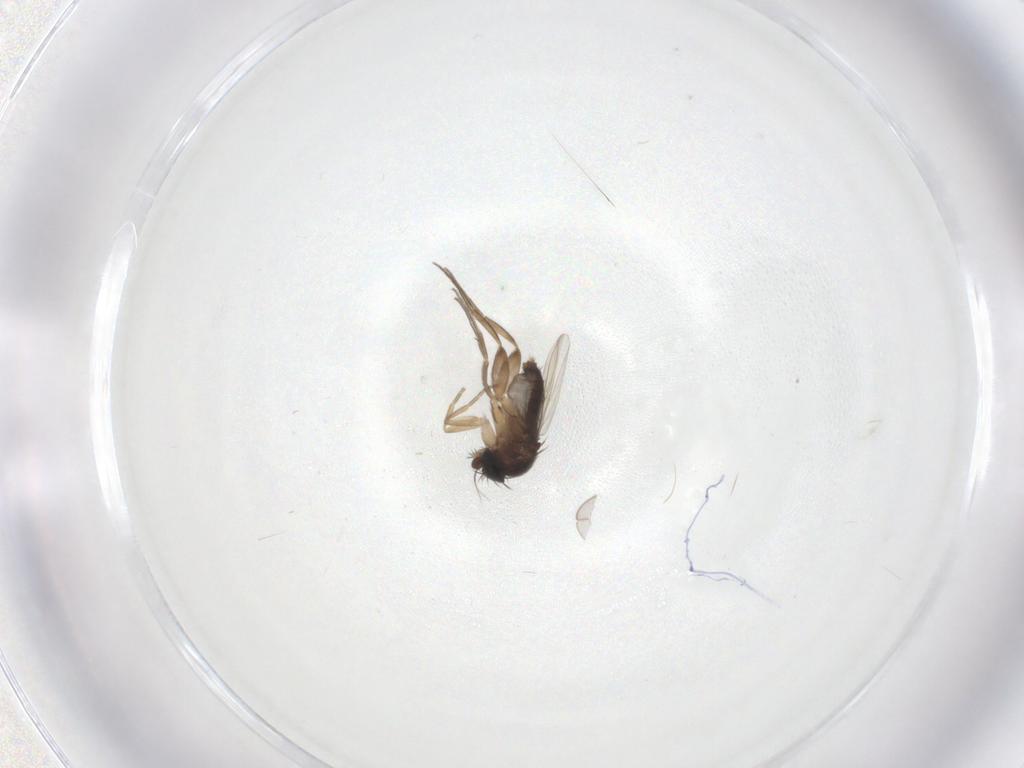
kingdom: Animalia
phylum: Arthropoda
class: Insecta
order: Diptera
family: Phoridae
